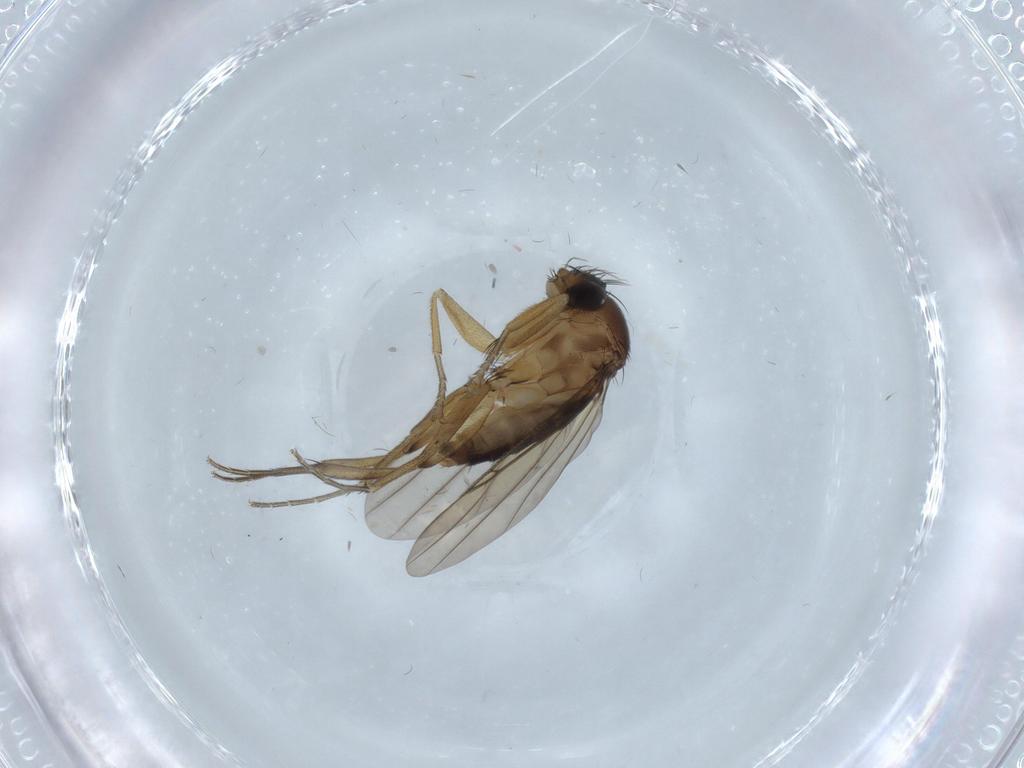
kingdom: Animalia
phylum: Arthropoda
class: Insecta
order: Diptera
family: Phoridae
